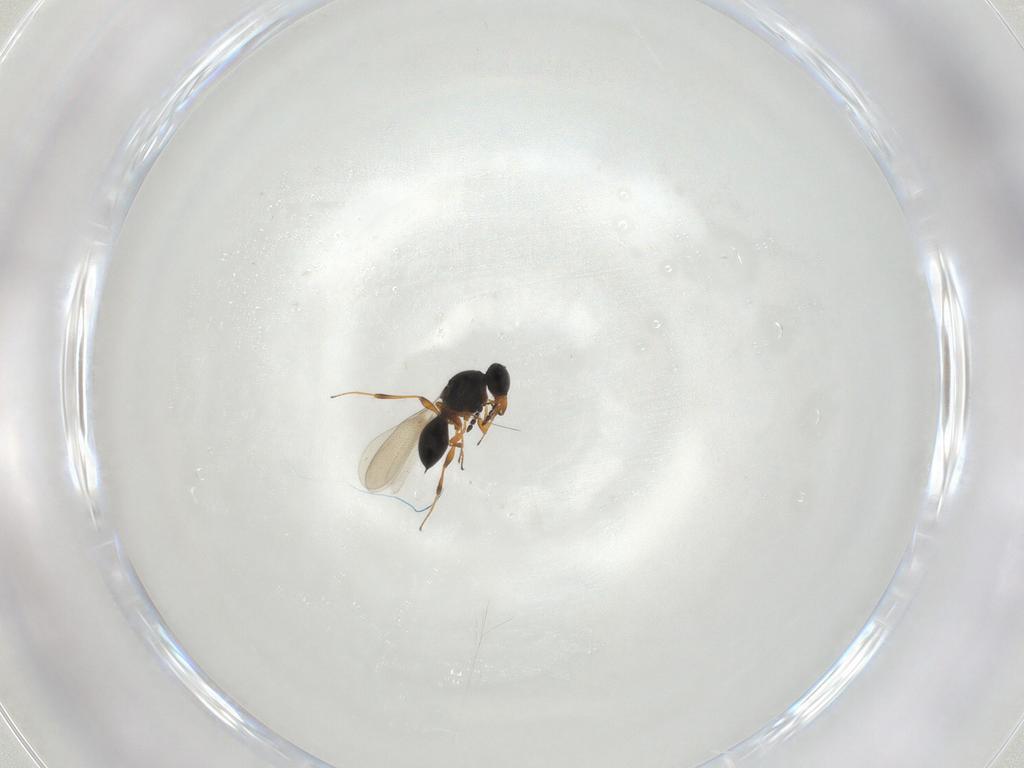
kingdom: Animalia
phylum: Arthropoda
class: Insecta
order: Hymenoptera
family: Platygastridae
